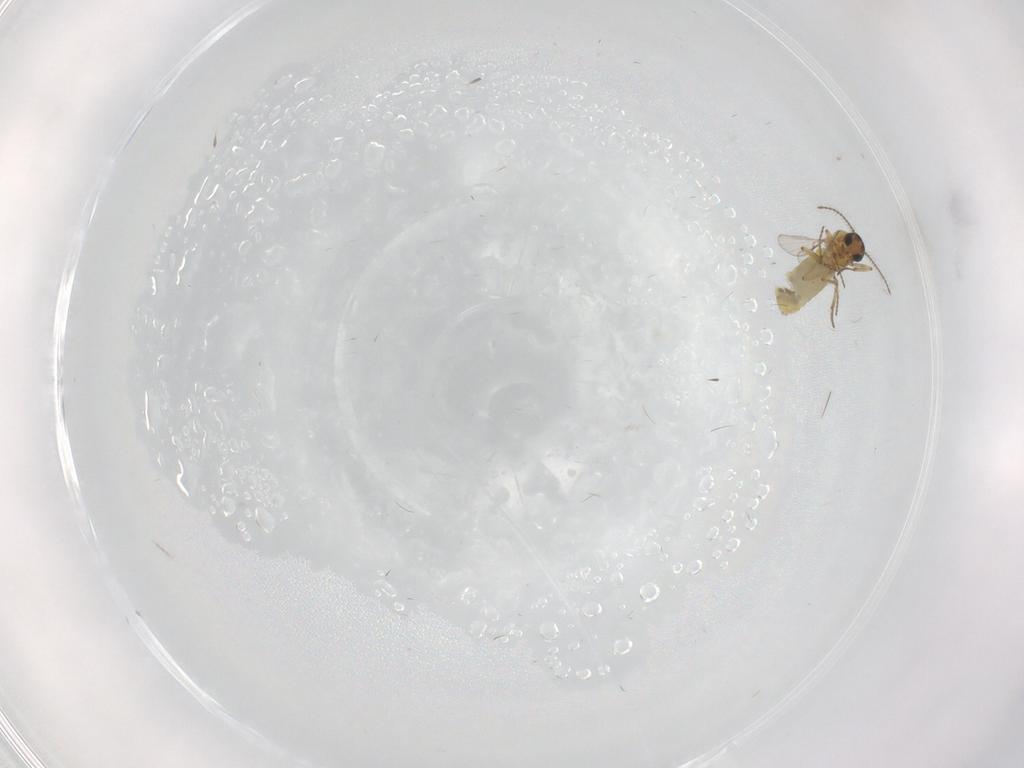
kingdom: Animalia
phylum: Arthropoda
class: Insecta
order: Diptera
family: Ceratopogonidae
